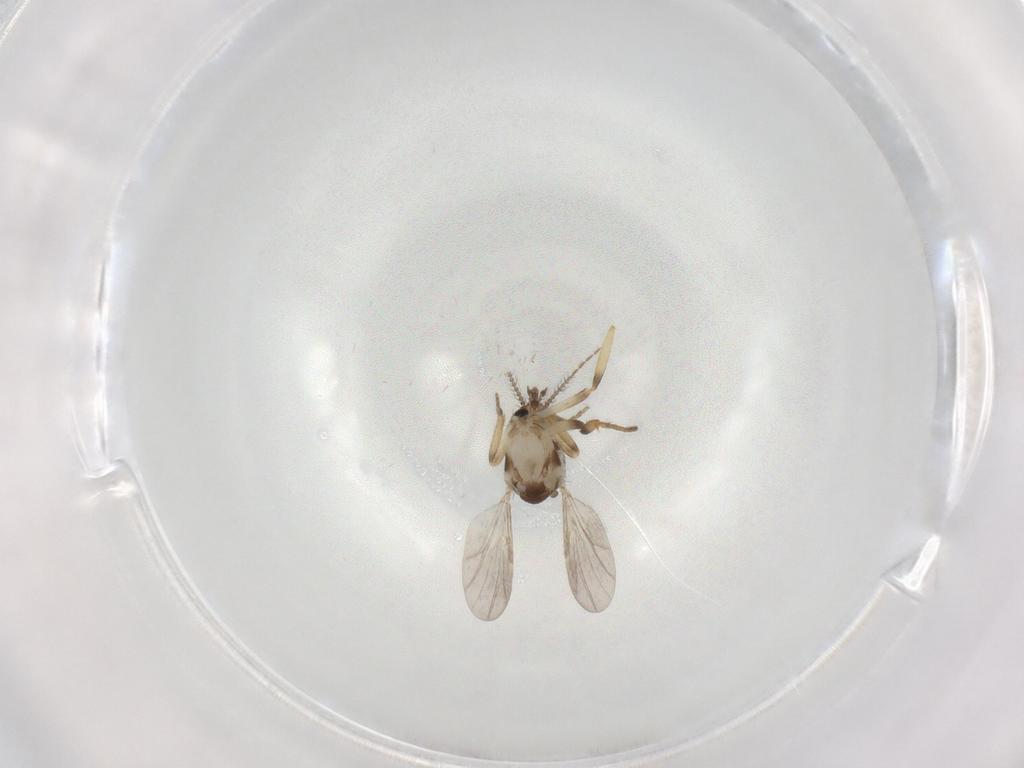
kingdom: Animalia
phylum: Arthropoda
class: Insecta
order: Diptera
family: Ceratopogonidae
